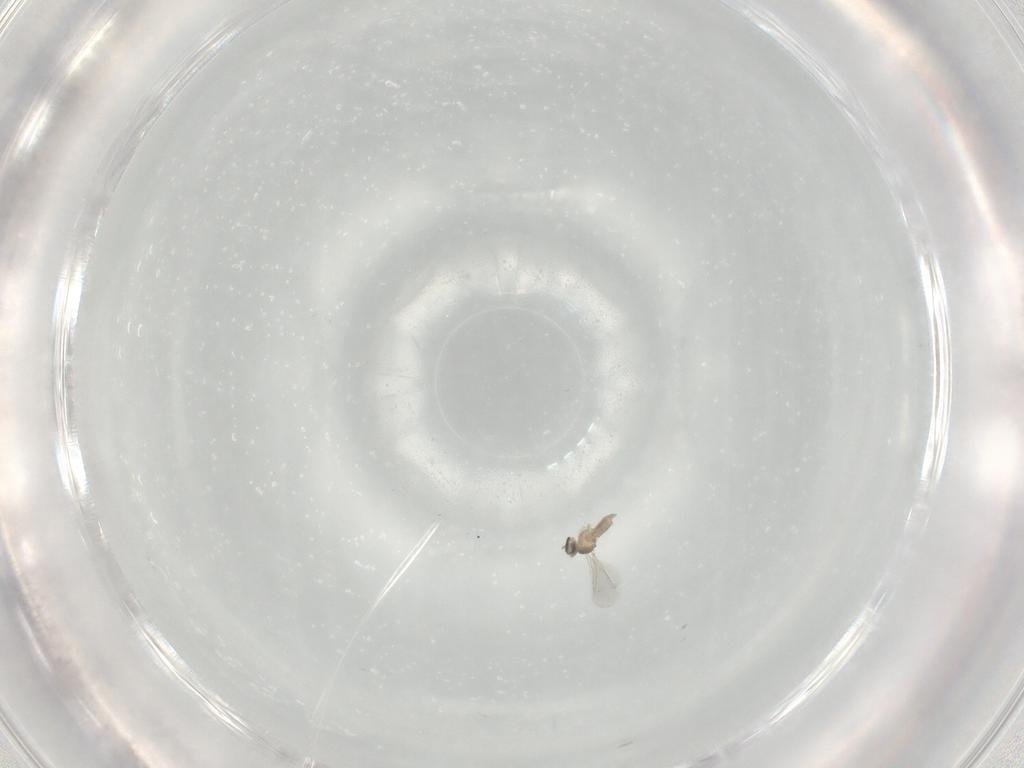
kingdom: Animalia
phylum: Arthropoda
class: Insecta
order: Diptera
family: Cecidomyiidae
